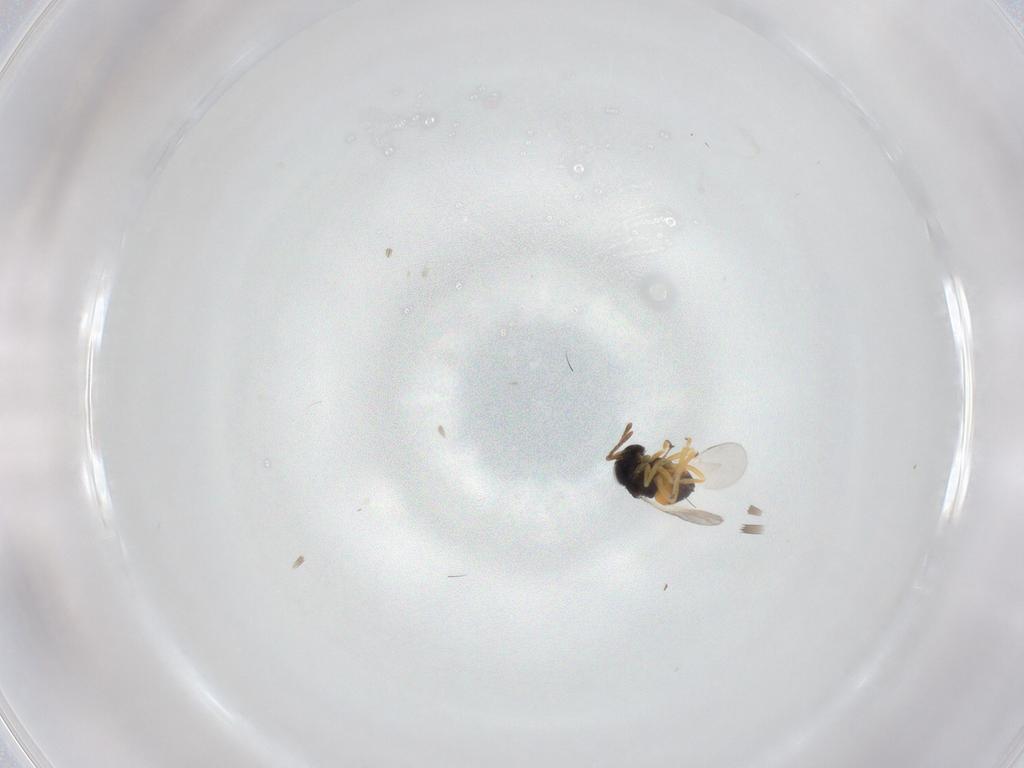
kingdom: Animalia
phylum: Arthropoda
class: Insecta
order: Hymenoptera
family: Encyrtidae
